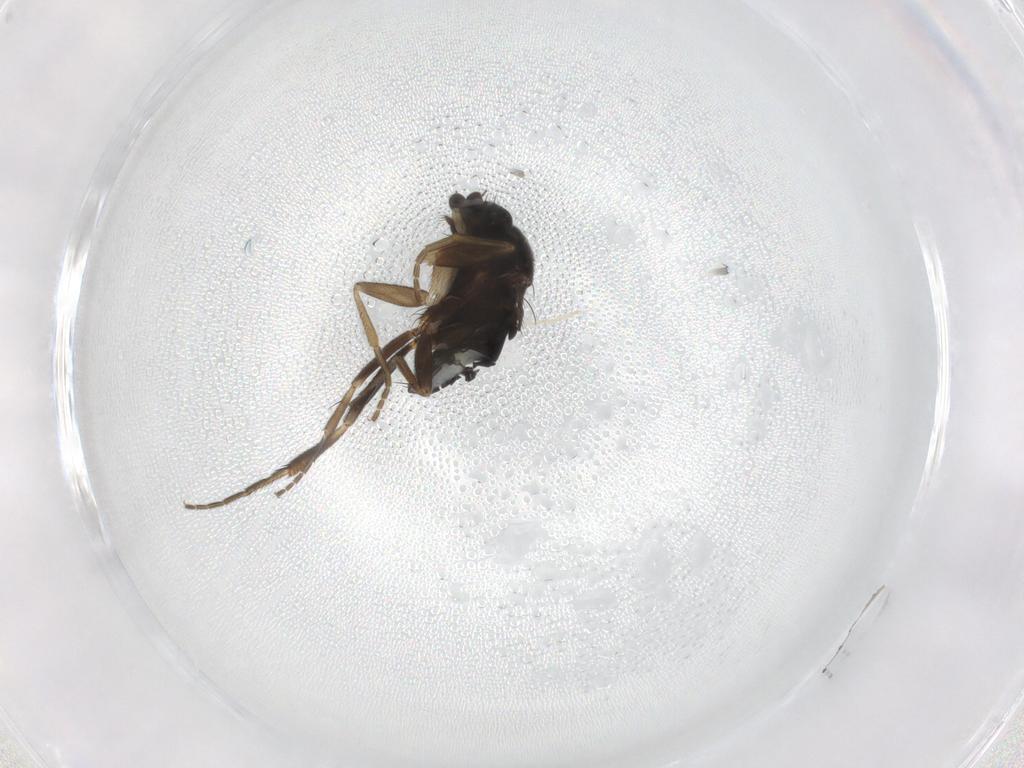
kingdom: Animalia
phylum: Arthropoda
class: Insecta
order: Diptera
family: Phoridae
